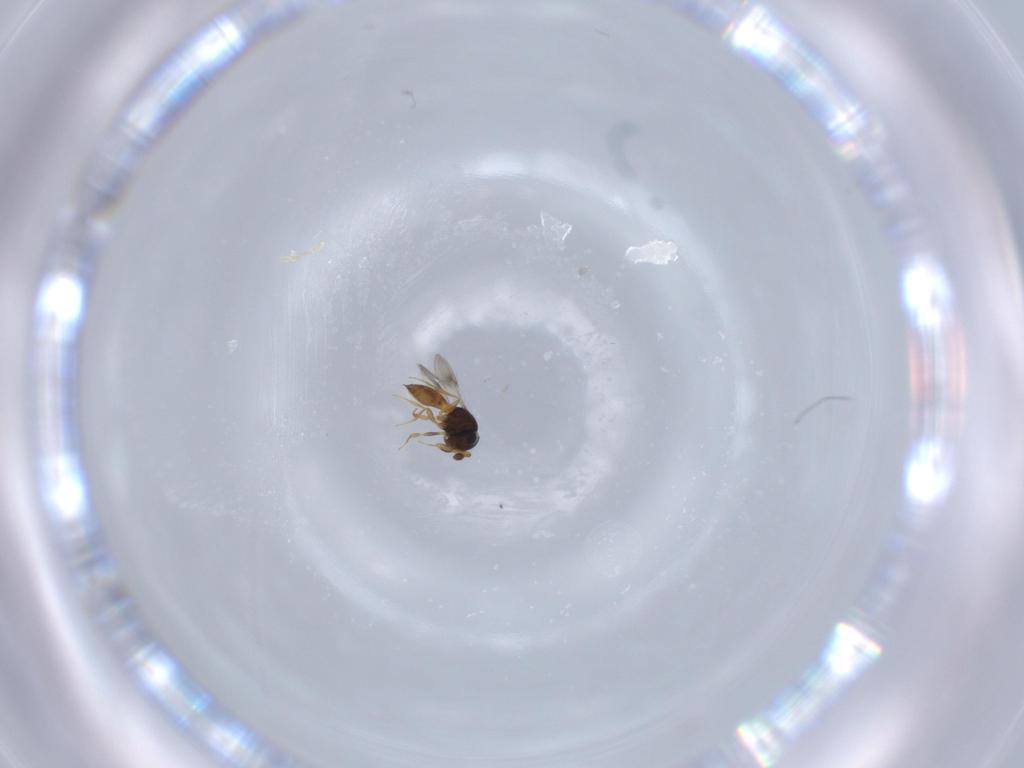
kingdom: Animalia
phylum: Arthropoda
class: Insecta
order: Hymenoptera
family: Scelionidae
